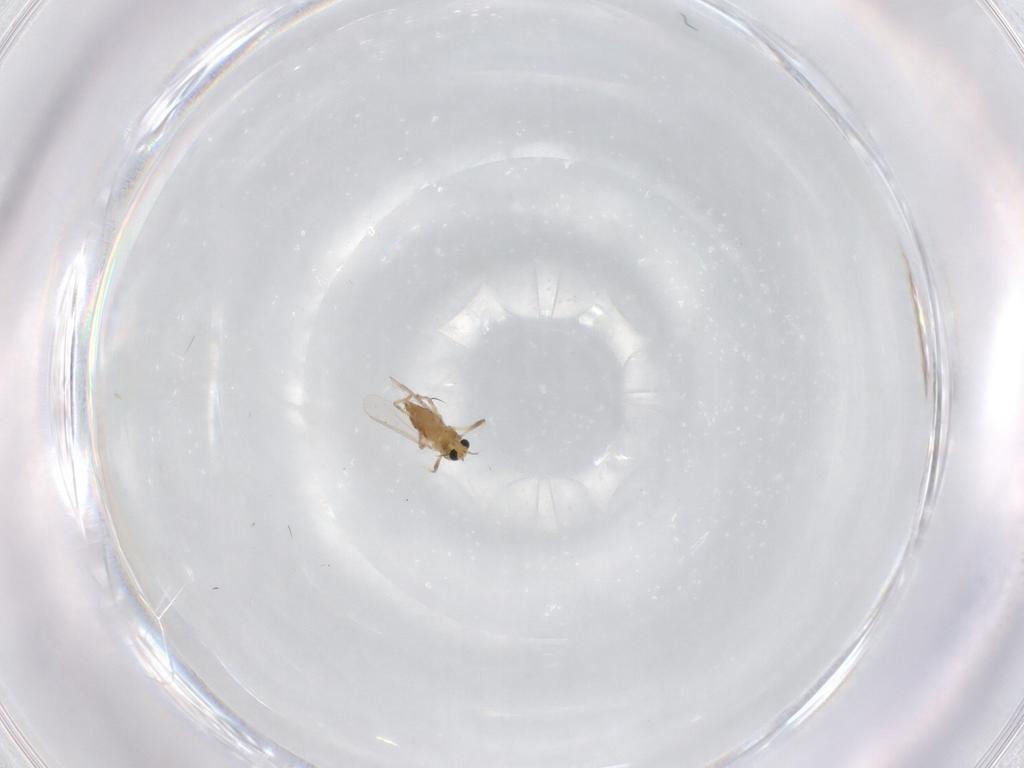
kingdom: Animalia
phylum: Arthropoda
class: Insecta
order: Diptera
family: Chironomidae
